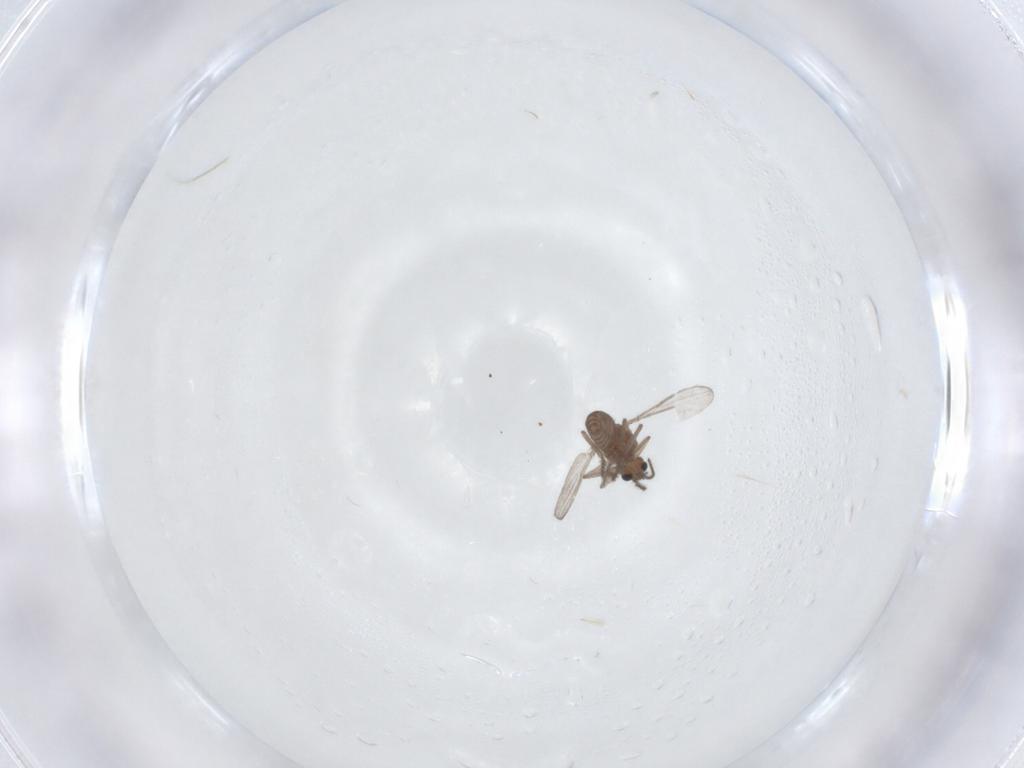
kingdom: Animalia
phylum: Arthropoda
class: Insecta
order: Diptera
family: Ceratopogonidae
